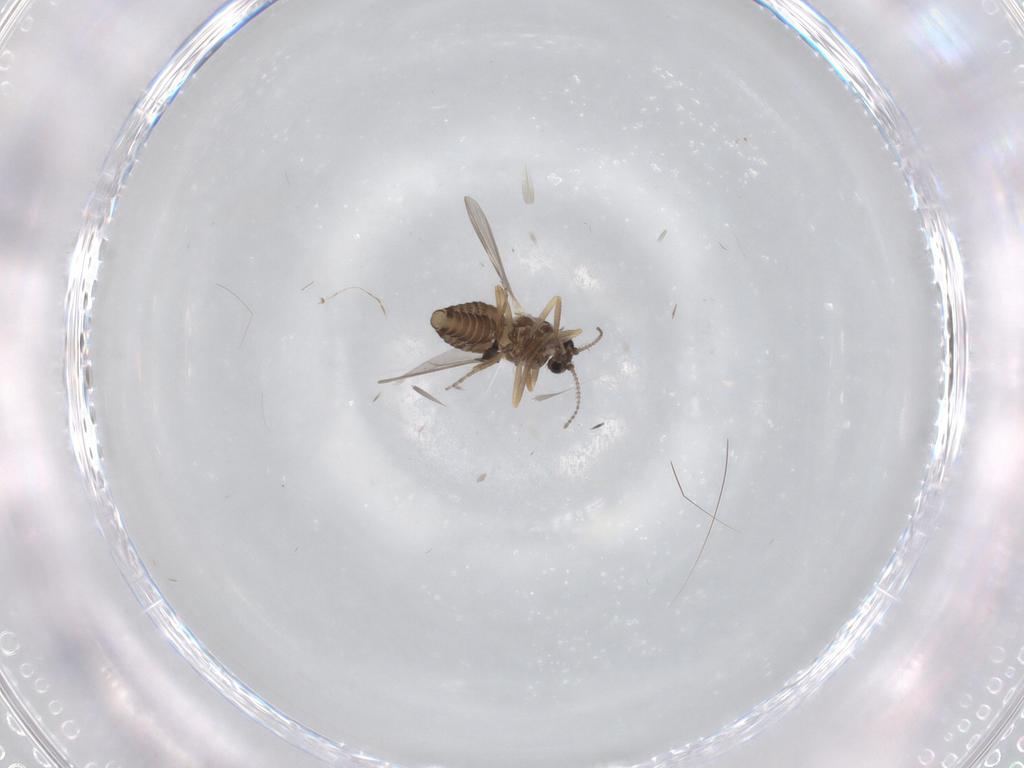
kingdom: Animalia
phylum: Arthropoda
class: Insecta
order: Diptera
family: Ceratopogonidae
